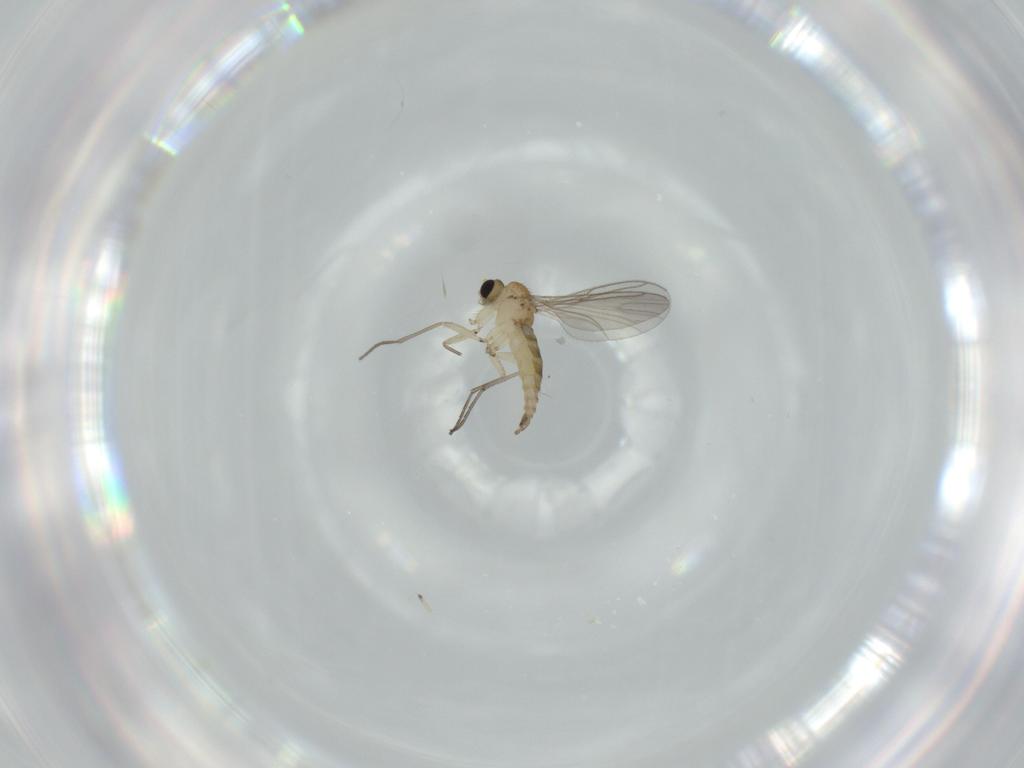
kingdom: Animalia
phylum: Arthropoda
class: Insecta
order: Diptera
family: Sciaridae
